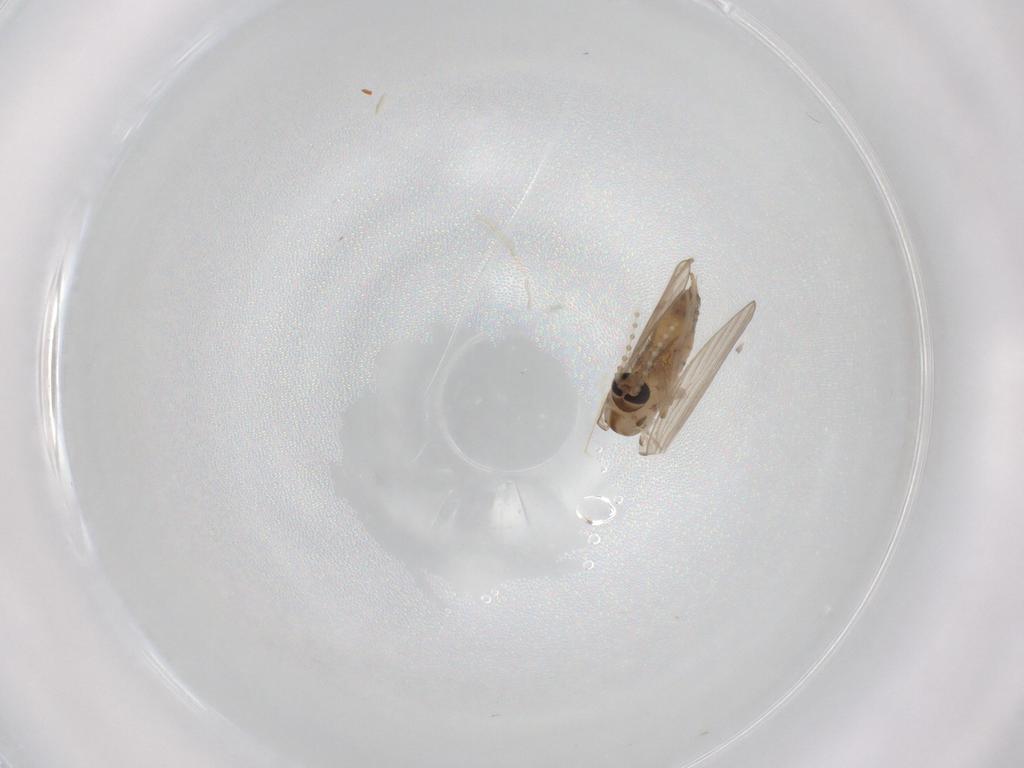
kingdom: Animalia
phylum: Arthropoda
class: Insecta
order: Diptera
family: Psychodidae
